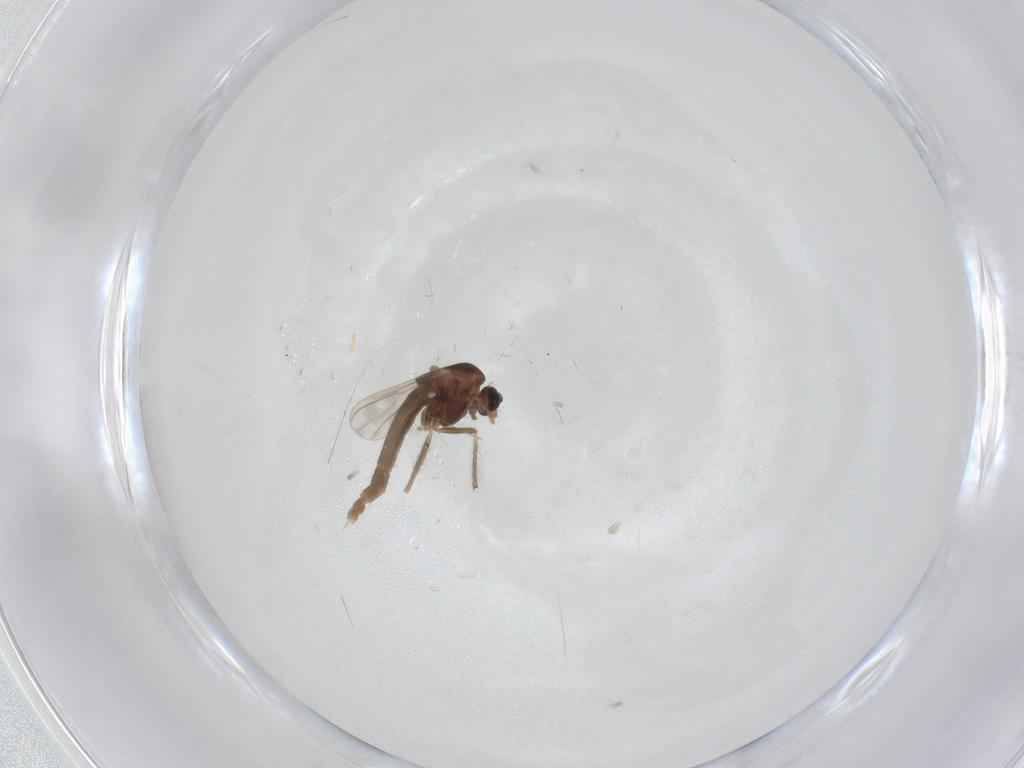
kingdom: Animalia
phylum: Arthropoda
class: Insecta
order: Diptera
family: Chironomidae
